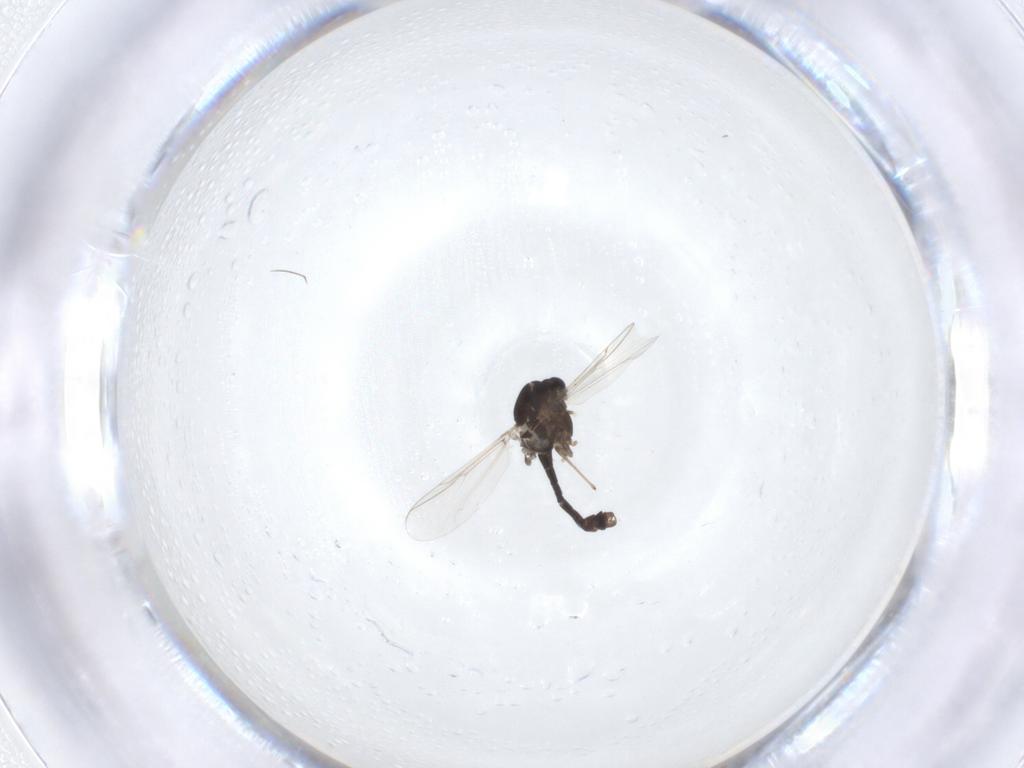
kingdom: Animalia
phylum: Arthropoda
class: Insecta
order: Diptera
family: Chironomidae
